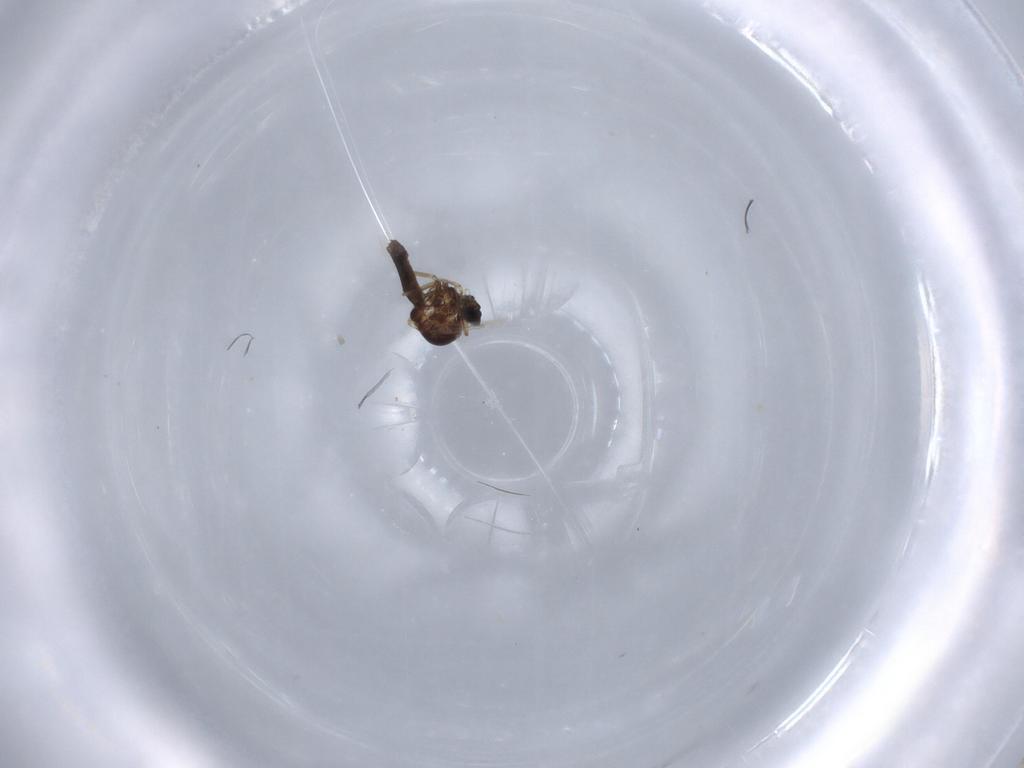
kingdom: Animalia
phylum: Arthropoda
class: Insecta
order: Diptera
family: Ceratopogonidae
